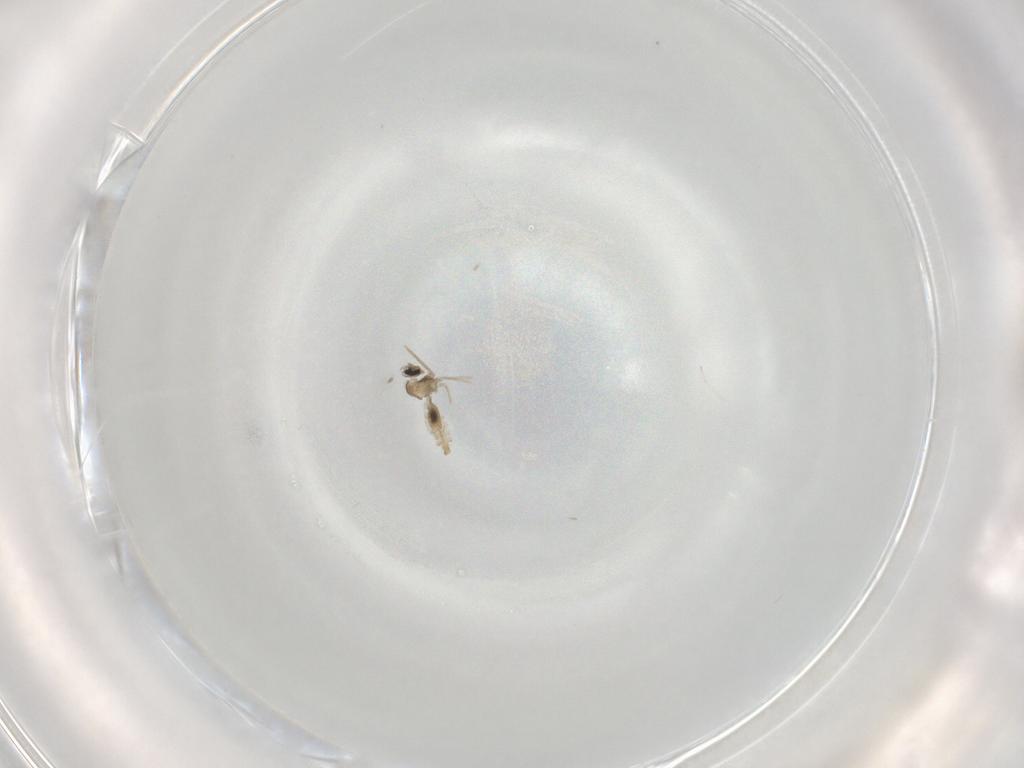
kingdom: Animalia
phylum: Arthropoda
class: Insecta
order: Diptera
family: Cecidomyiidae
